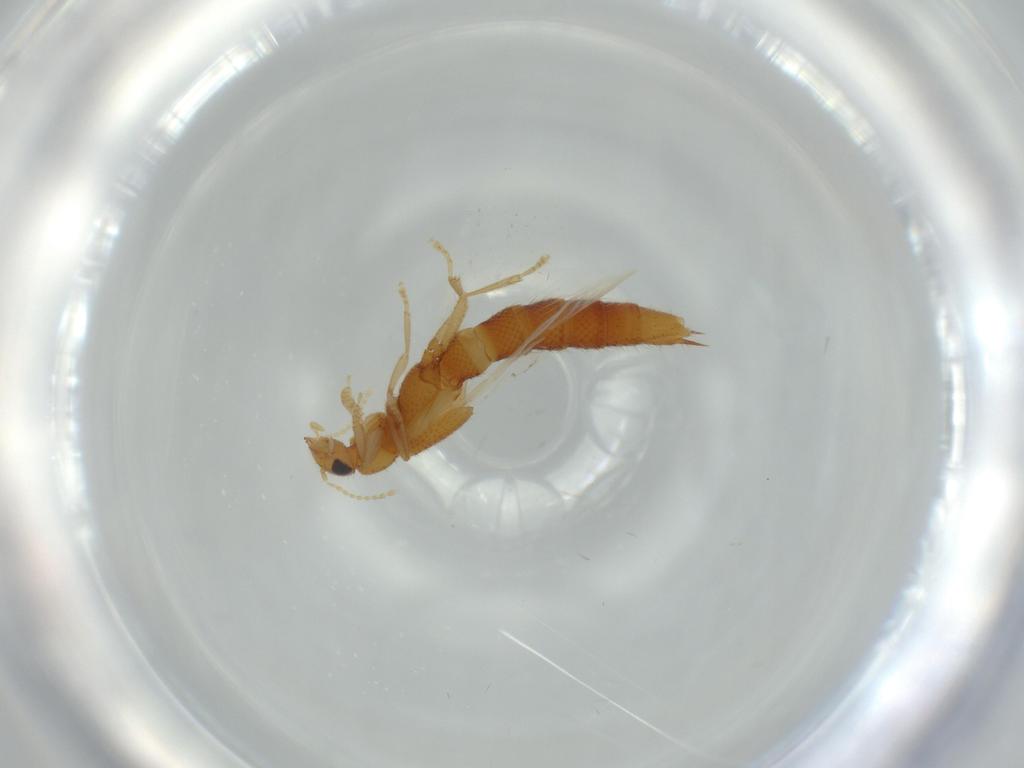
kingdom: Animalia
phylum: Arthropoda
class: Insecta
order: Coleoptera
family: Staphylinidae
